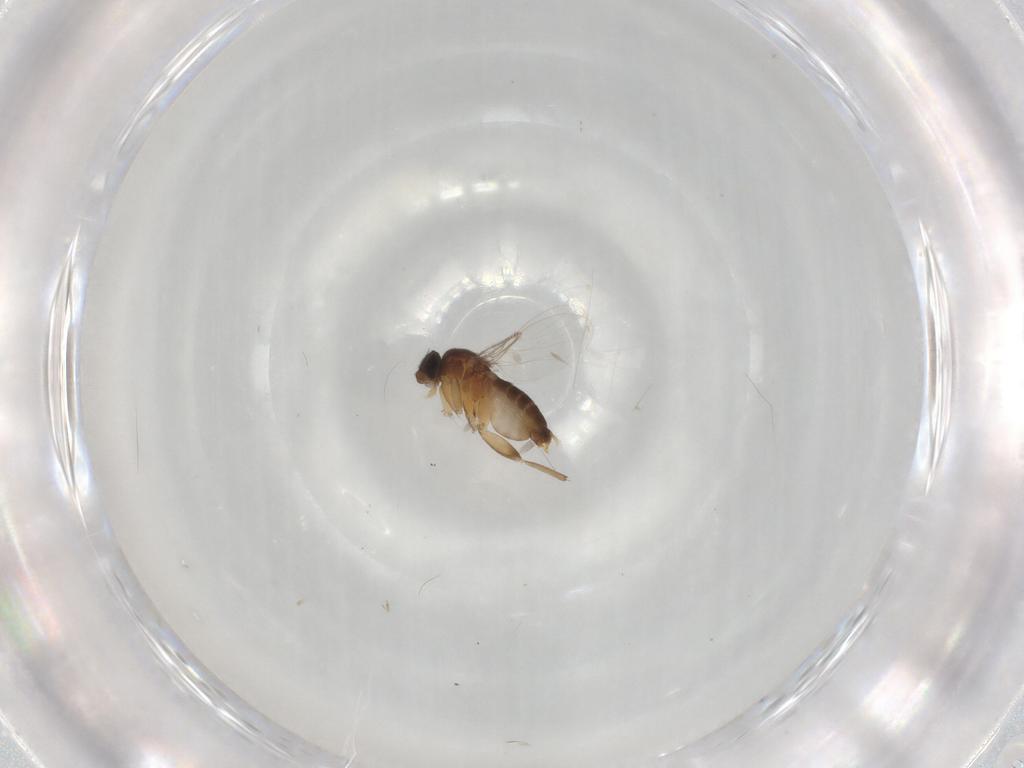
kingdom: Animalia
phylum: Arthropoda
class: Insecta
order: Diptera
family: Phoridae
